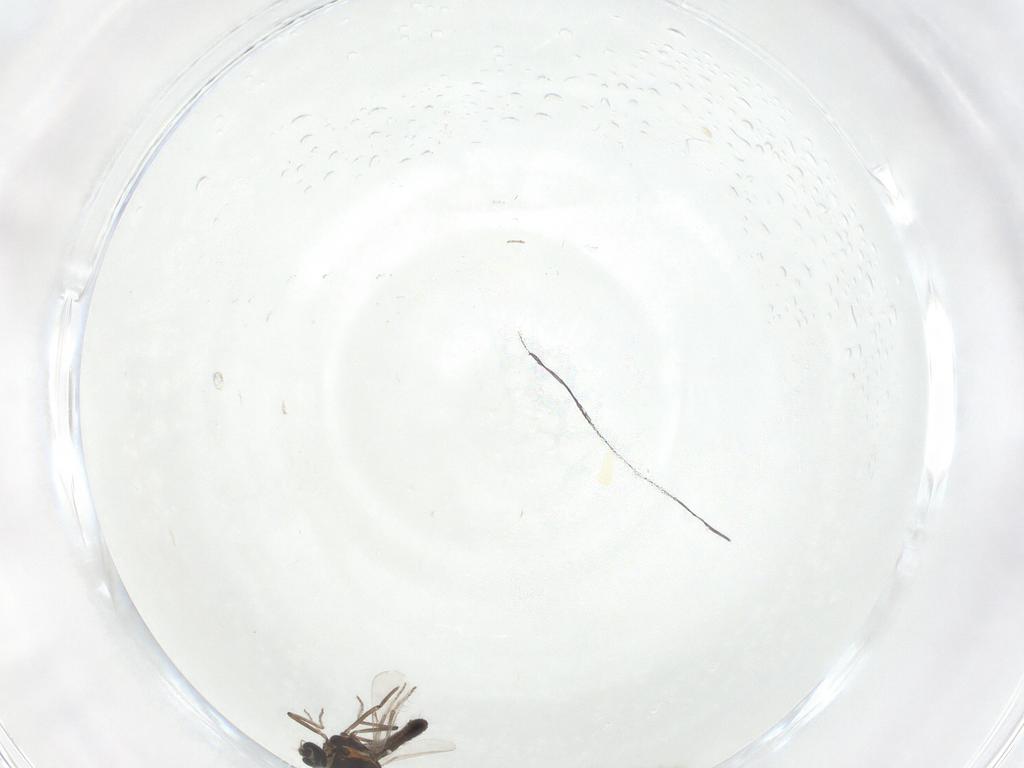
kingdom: Animalia
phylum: Arthropoda
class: Insecta
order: Diptera
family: Ceratopogonidae
